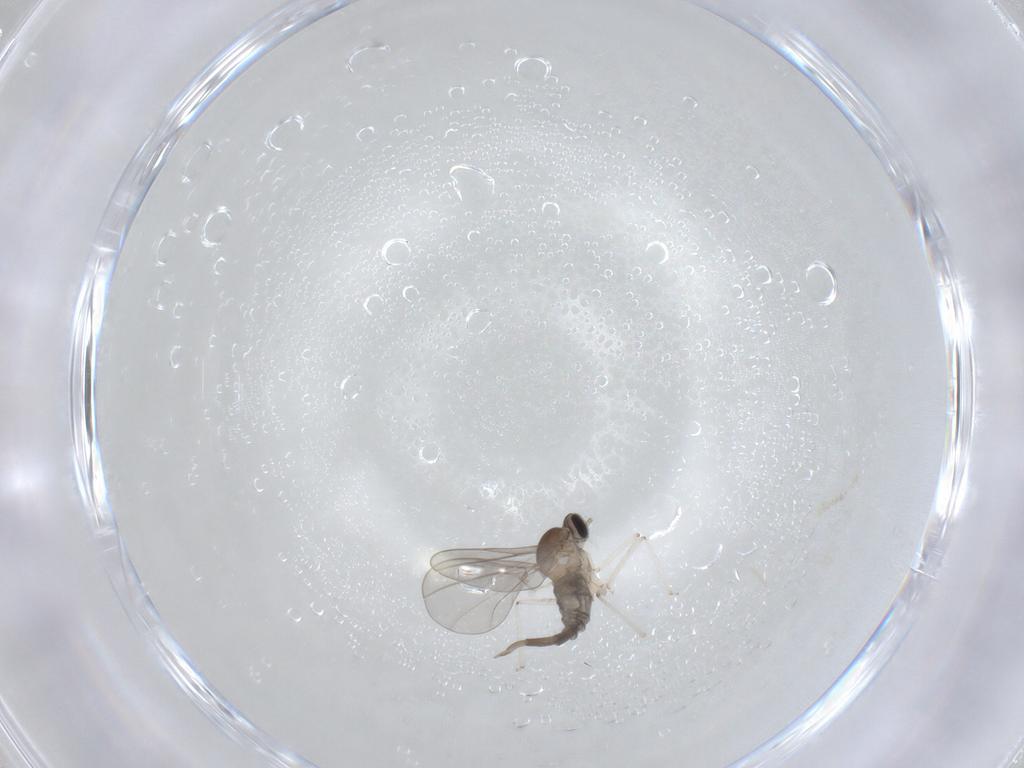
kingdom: Animalia
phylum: Arthropoda
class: Insecta
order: Diptera
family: Cecidomyiidae
